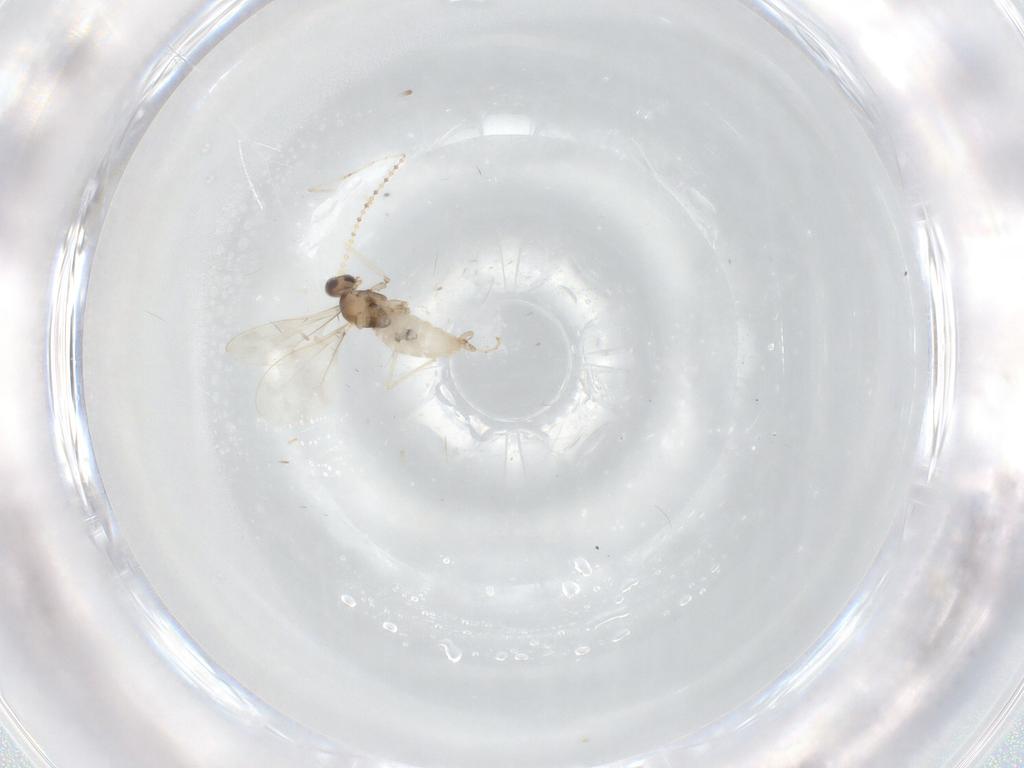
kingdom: Animalia
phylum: Arthropoda
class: Insecta
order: Diptera
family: Cecidomyiidae
